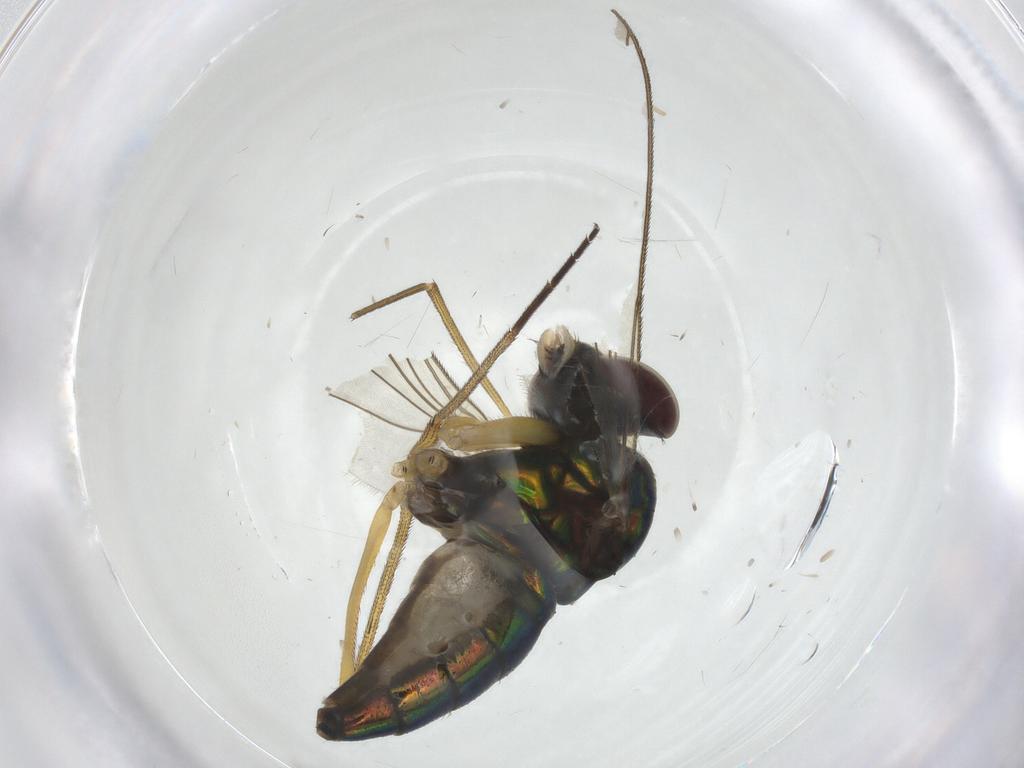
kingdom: Animalia
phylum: Arthropoda
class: Insecta
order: Diptera
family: Dolichopodidae
